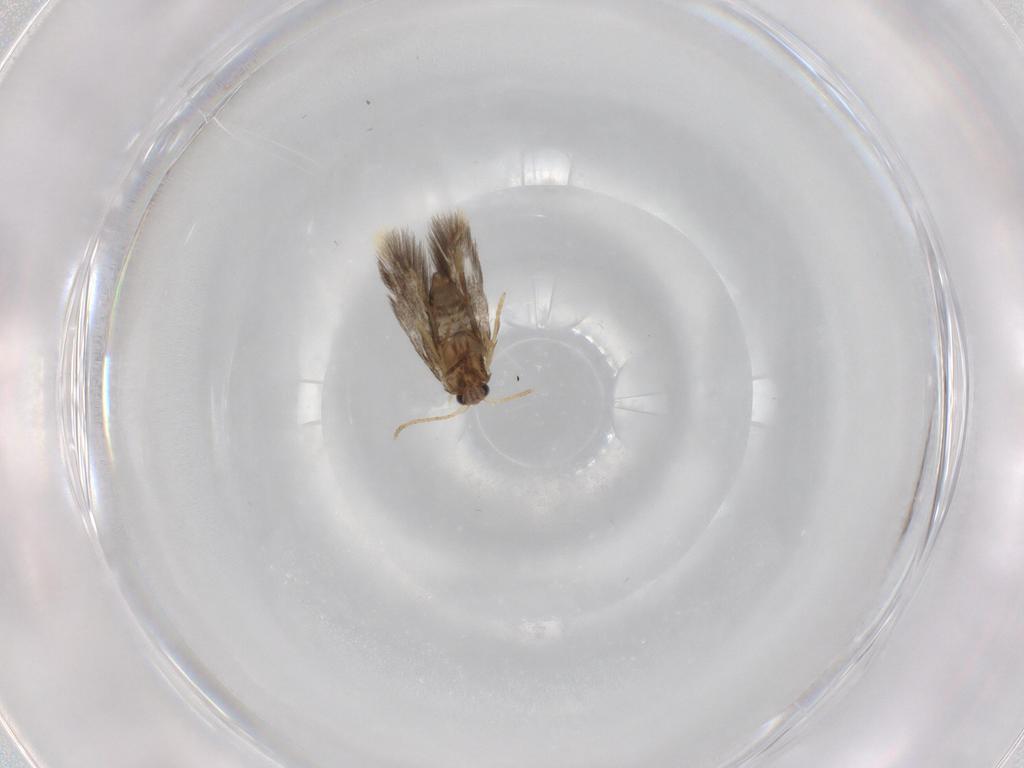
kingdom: Animalia
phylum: Arthropoda
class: Insecta
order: Lepidoptera
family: Copromorphidae
